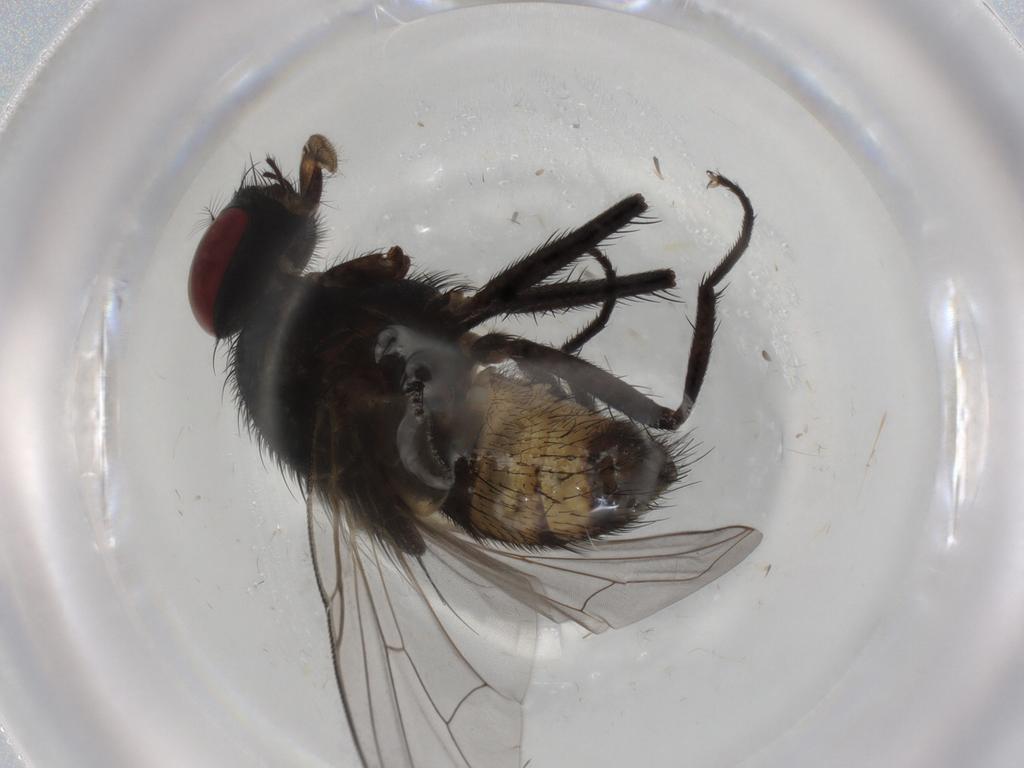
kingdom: Animalia
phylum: Arthropoda
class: Insecta
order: Diptera
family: Muscidae
